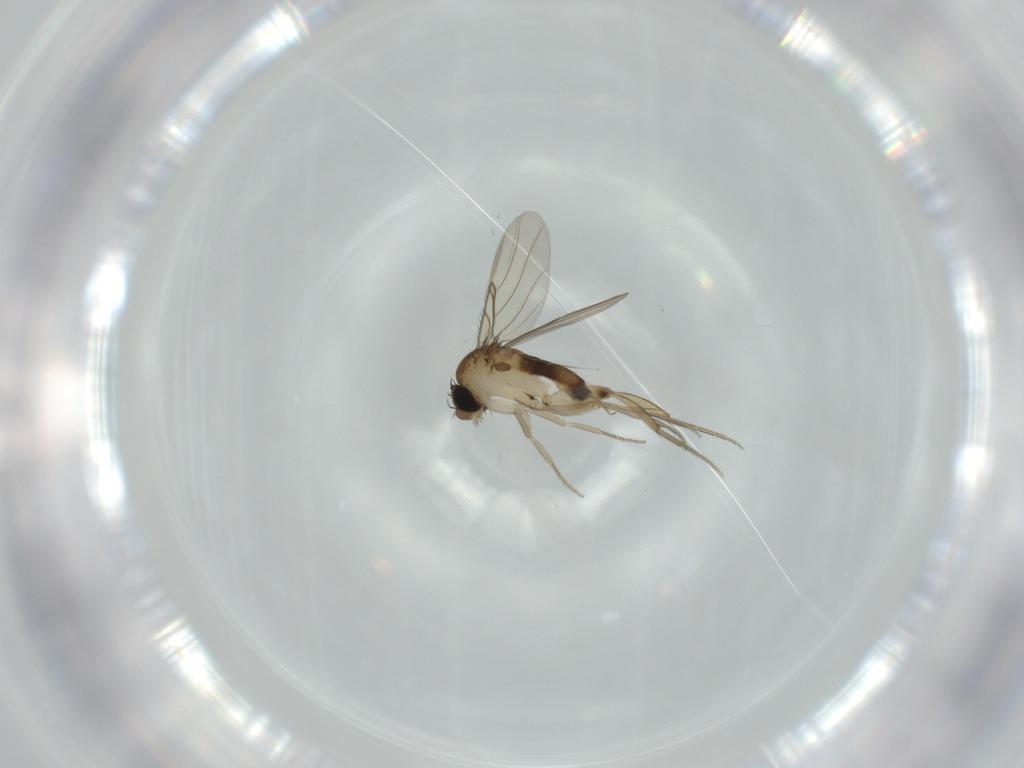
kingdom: Animalia
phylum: Arthropoda
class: Insecta
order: Diptera
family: Phoridae
